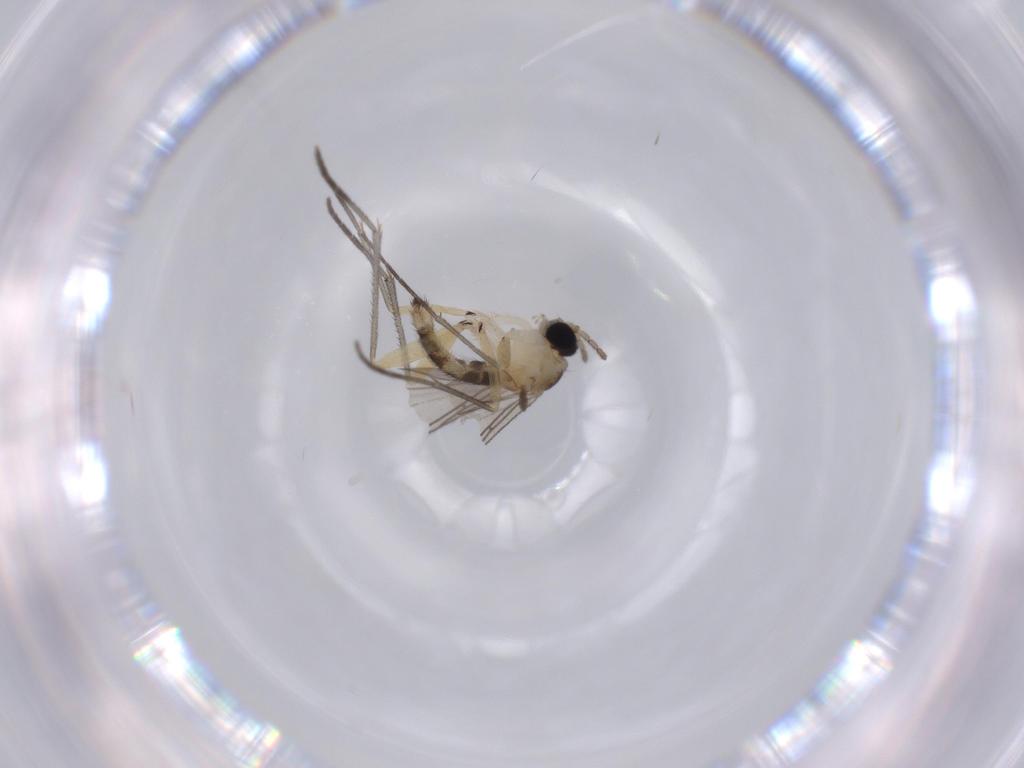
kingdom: Animalia
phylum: Arthropoda
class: Insecta
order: Diptera
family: Sciaridae
